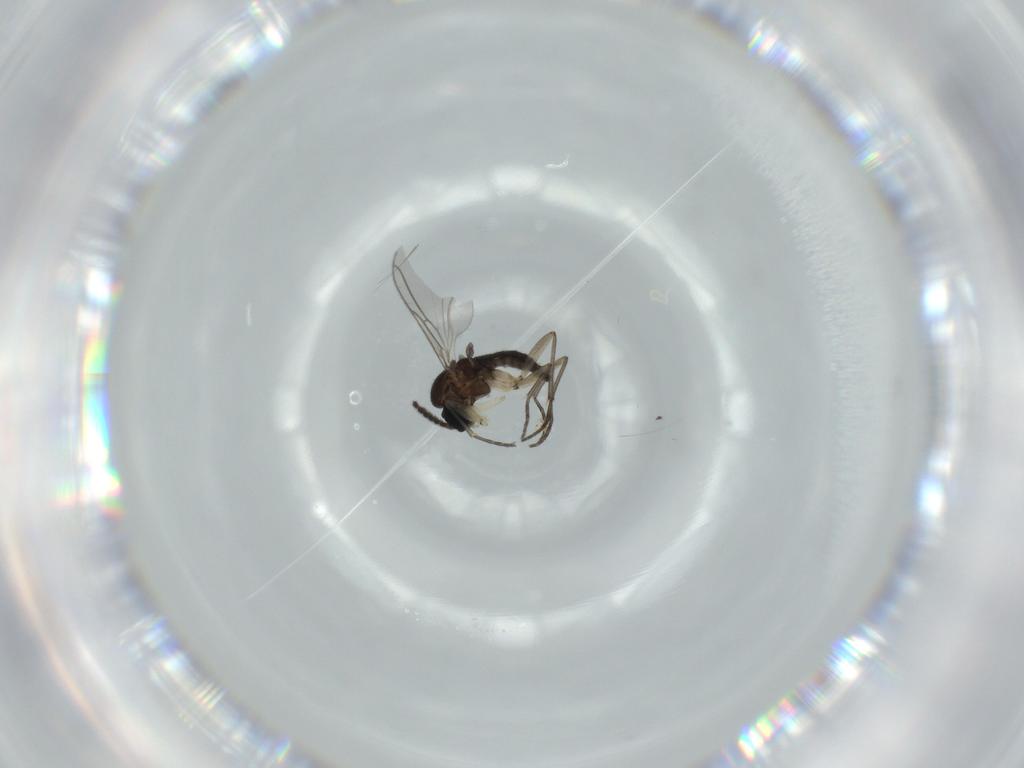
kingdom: Animalia
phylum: Arthropoda
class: Insecta
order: Diptera
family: Sciaridae
